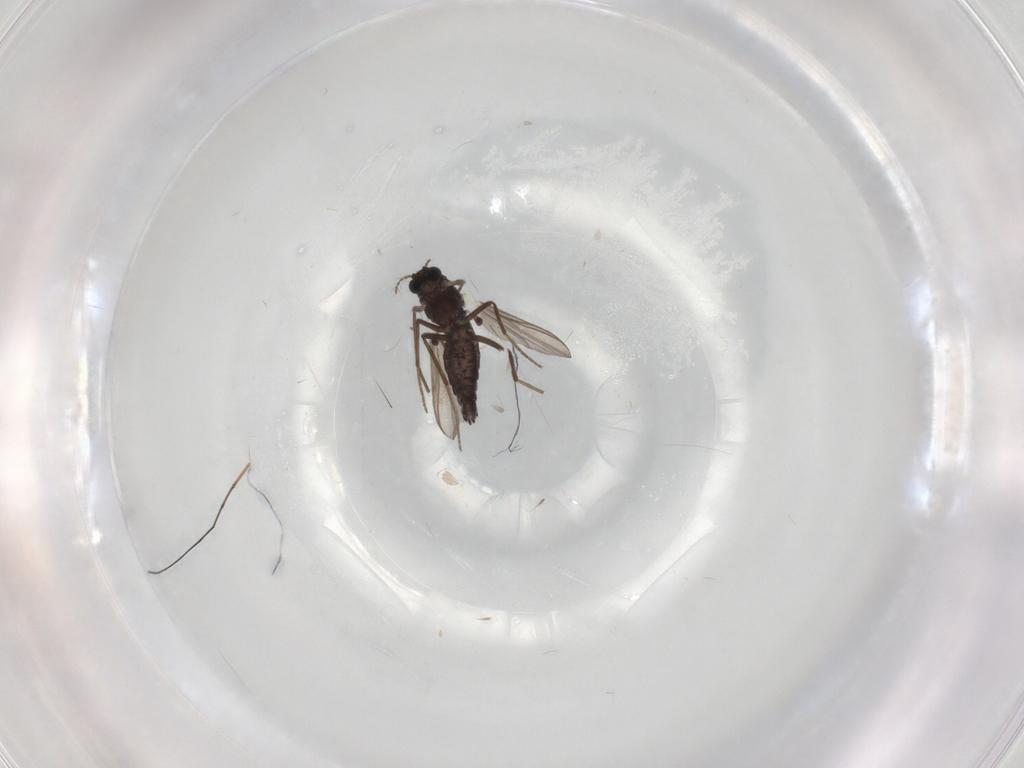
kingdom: Animalia
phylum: Arthropoda
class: Insecta
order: Diptera
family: Chironomidae
